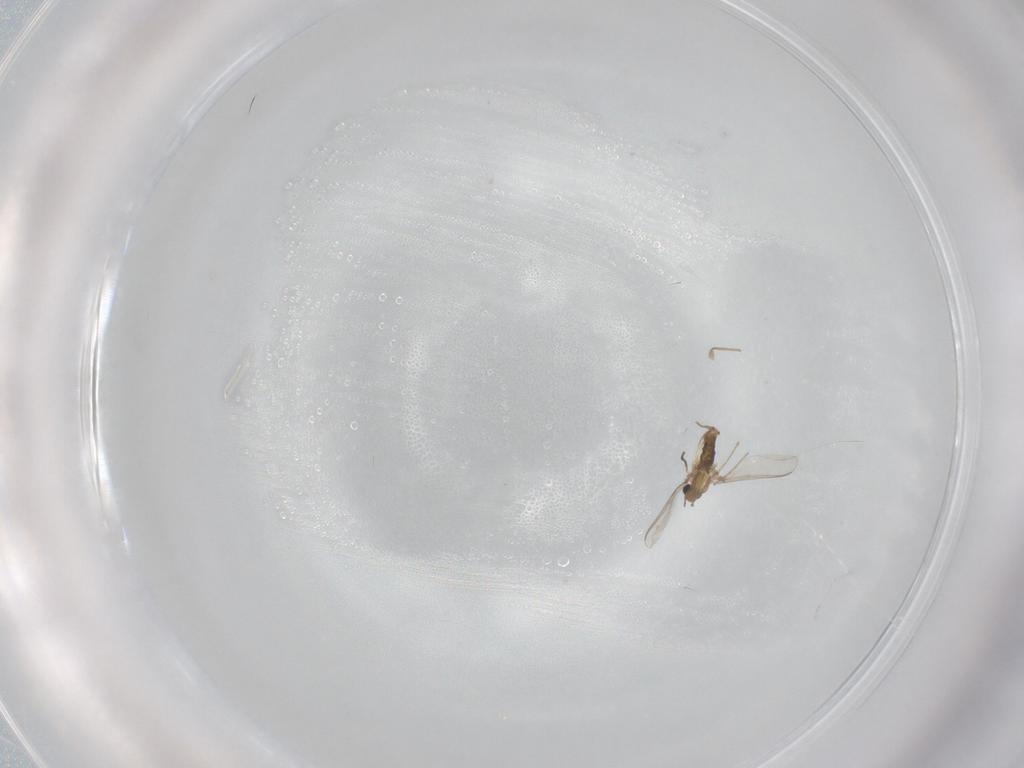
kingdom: Animalia
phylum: Arthropoda
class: Insecta
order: Diptera
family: Chironomidae
